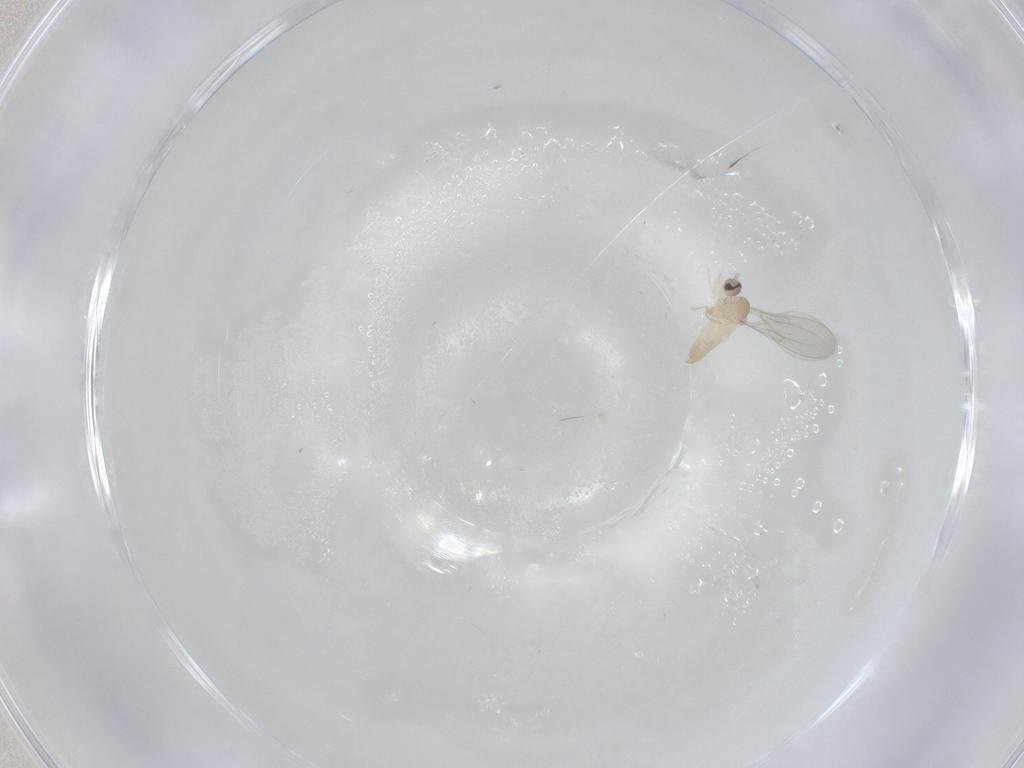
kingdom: Animalia
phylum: Arthropoda
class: Insecta
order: Diptera
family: Cecidomyiidae
